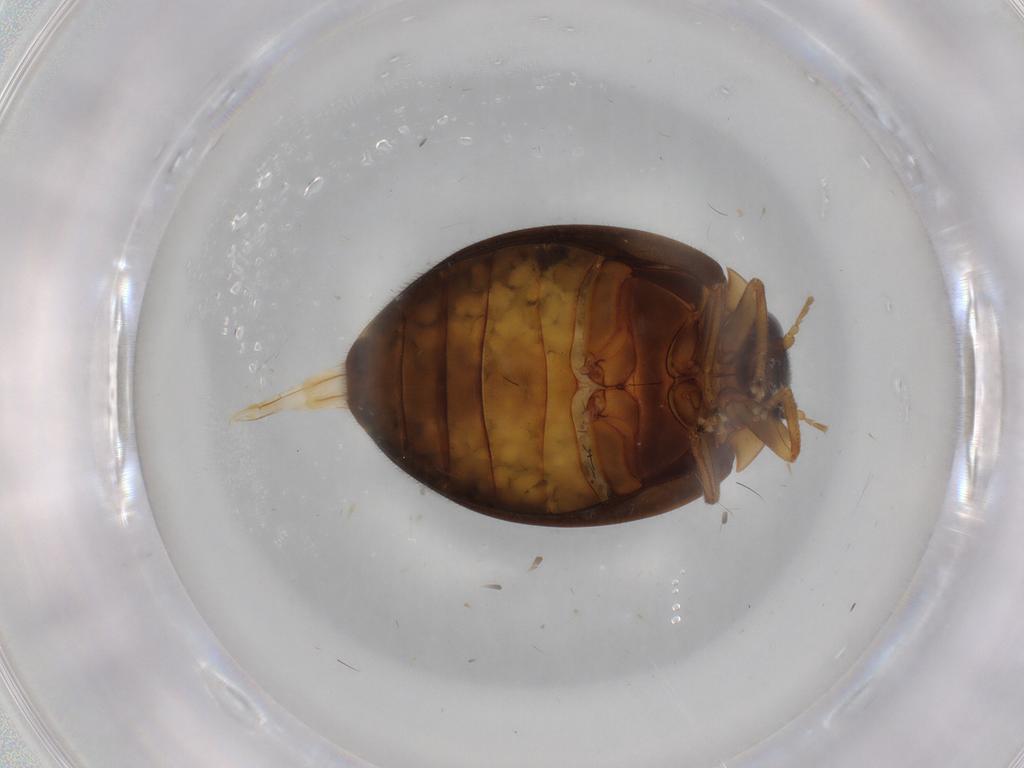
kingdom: Animalia
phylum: Arthropoda
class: Insecta
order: Coleoptera
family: Scirtidae
